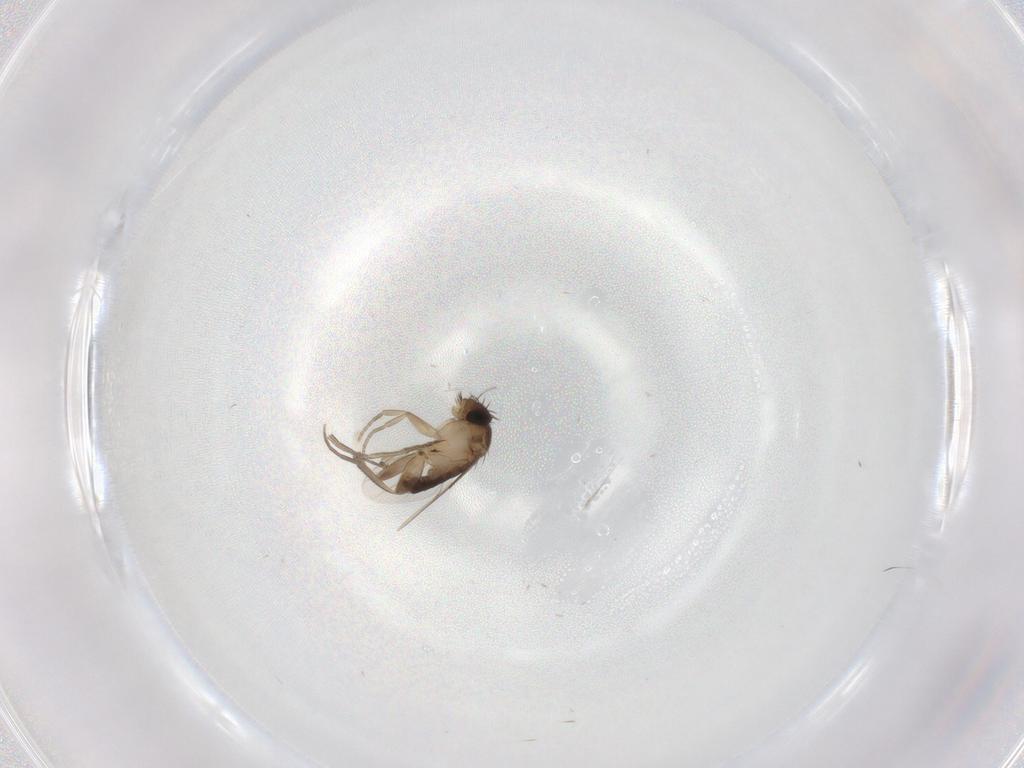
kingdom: Animalia
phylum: Arthropoda
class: Insecta
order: Diptera
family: Phoridae
